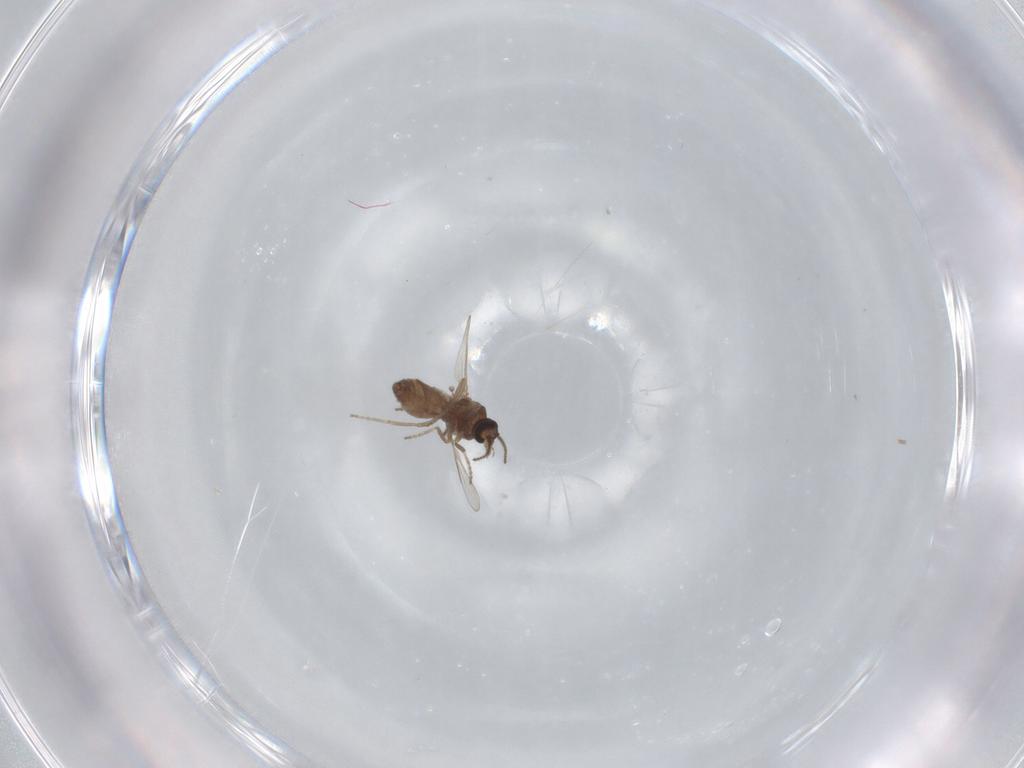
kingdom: Animalia
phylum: Arthropoda
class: Insecta
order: Diptera
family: Ceratopogonidae
